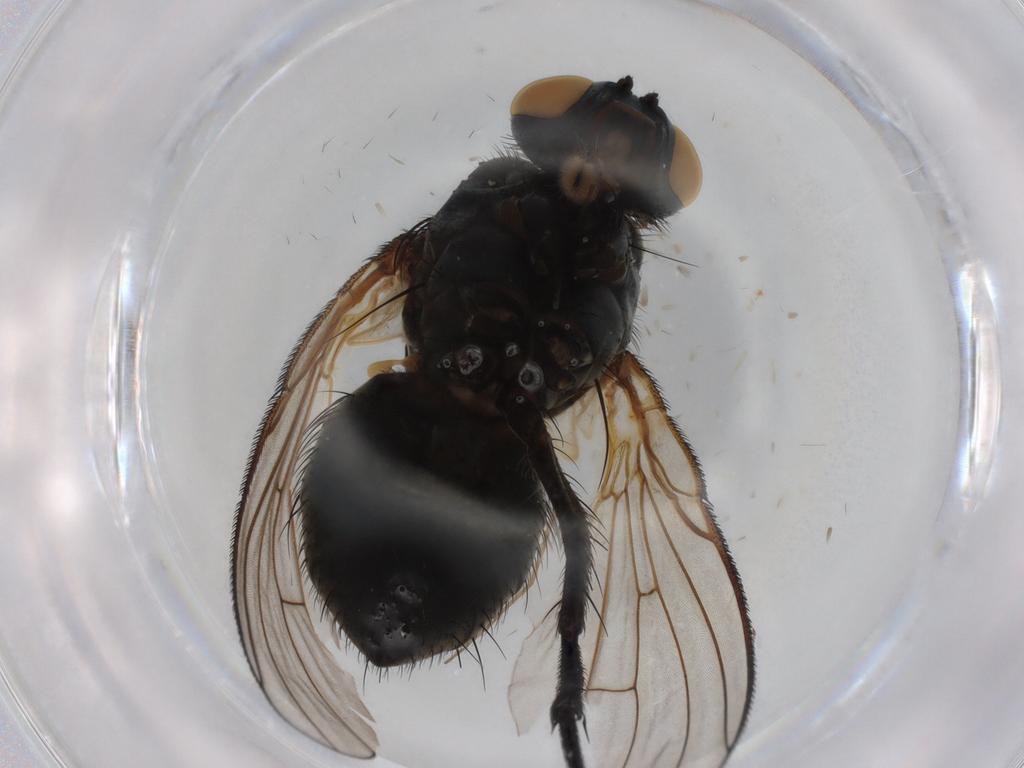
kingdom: Animalia
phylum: Arthropoda
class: Insecta
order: Diptera
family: Muscidae
